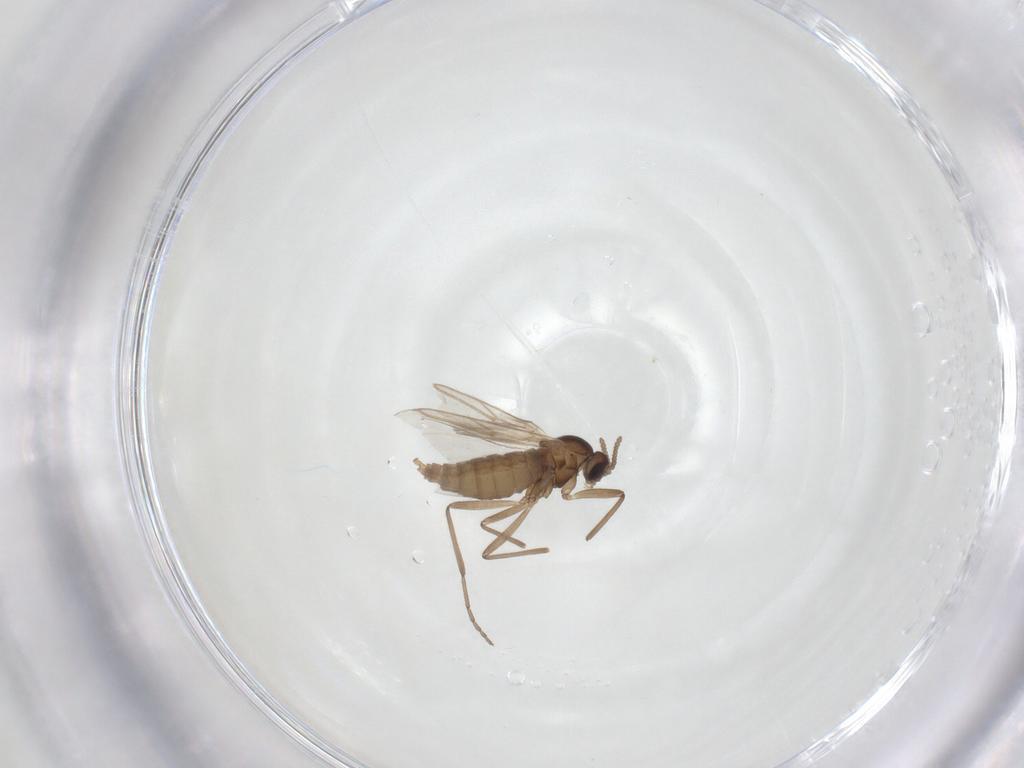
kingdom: Animalia
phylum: Arthropoda
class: Insecta
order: Diptera
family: Cecidomyiidae
